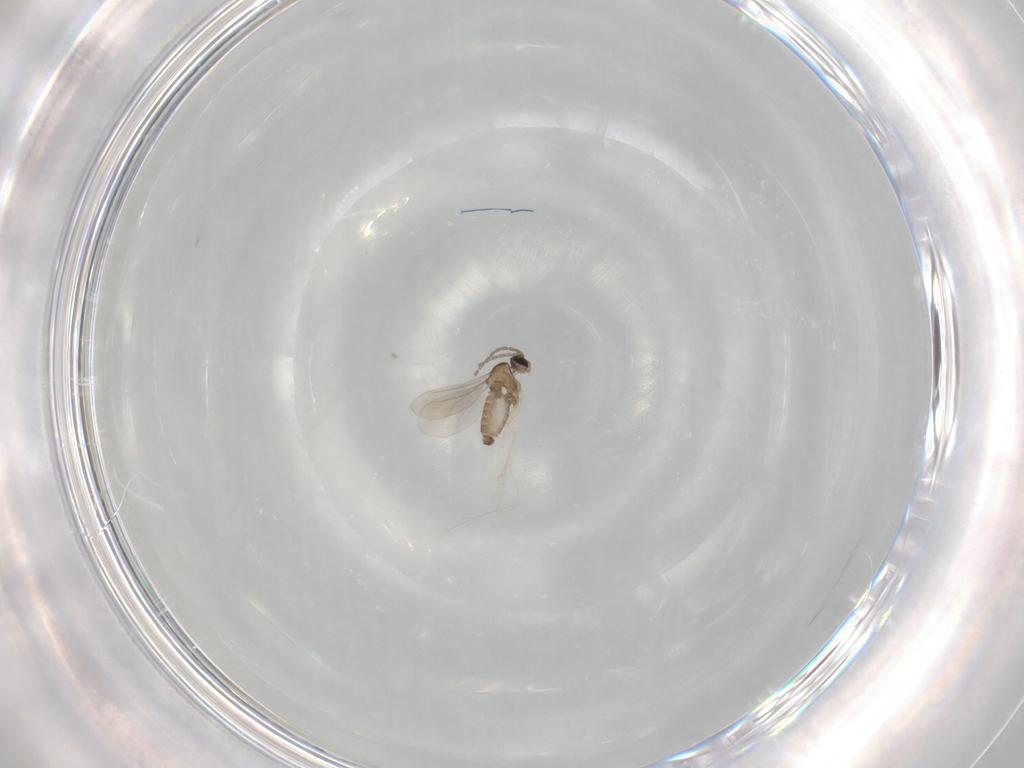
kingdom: Animalia
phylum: Arthropoda
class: Insecta
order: Diptera
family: Cecidomyiidae
